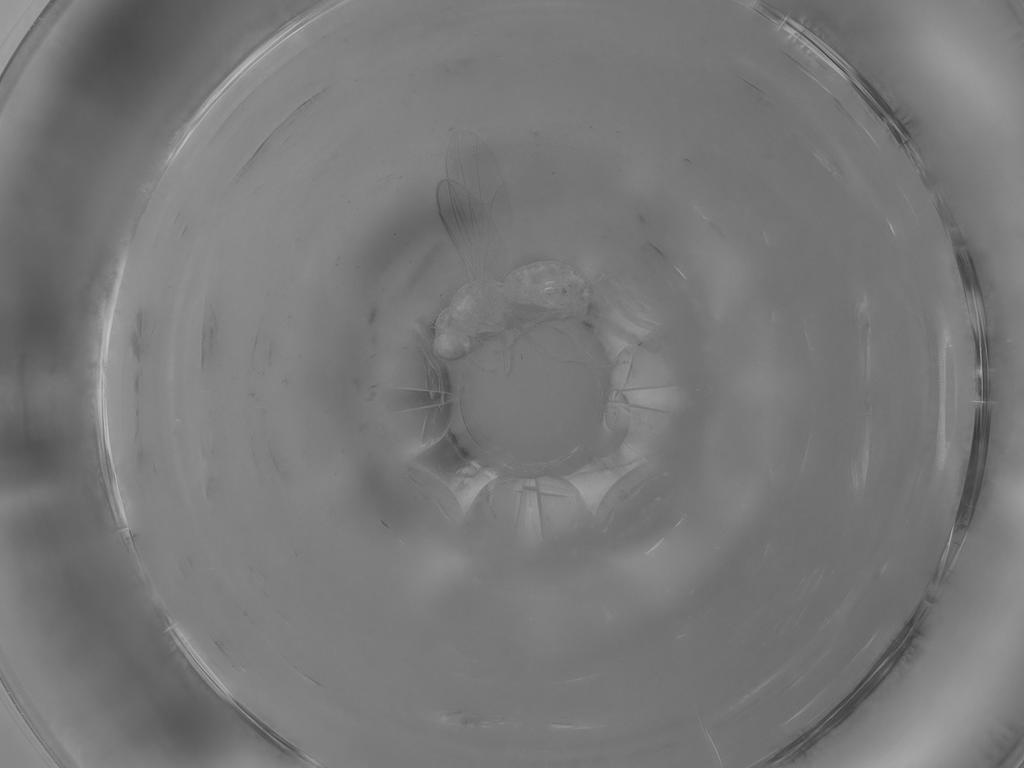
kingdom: Animalia
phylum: Arthropoda
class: Insecta
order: Diptera
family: Drosophilidae
